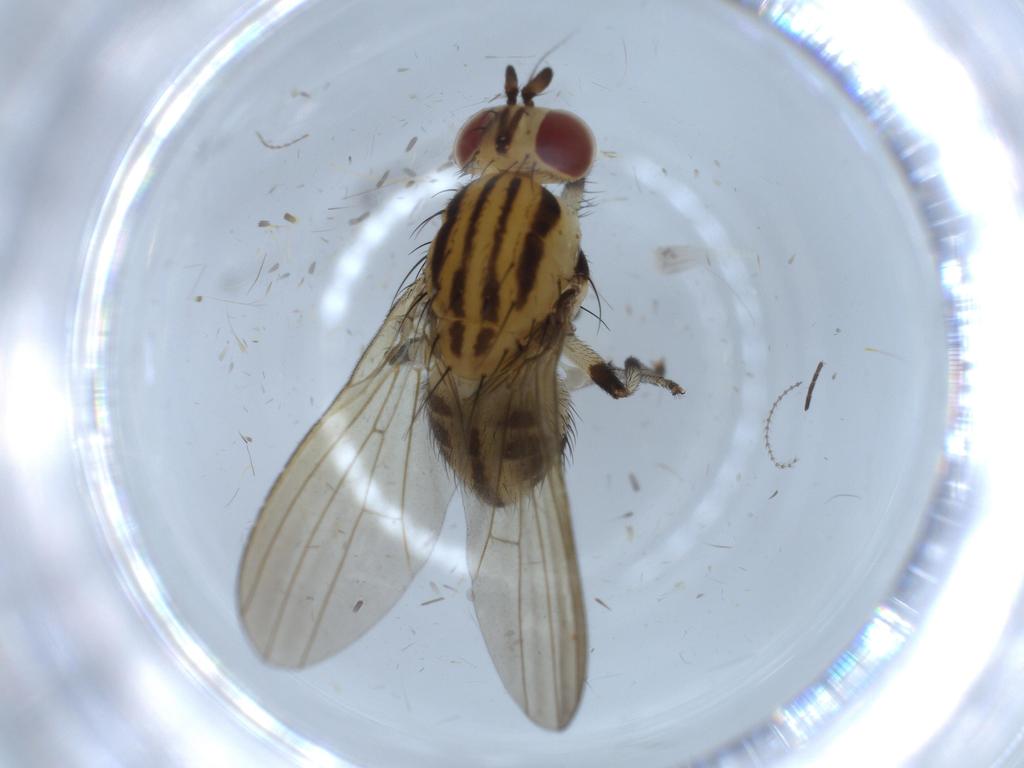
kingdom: Animalia
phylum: Arthropoda
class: Insecta
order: Diptera
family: Lauxaniidae
